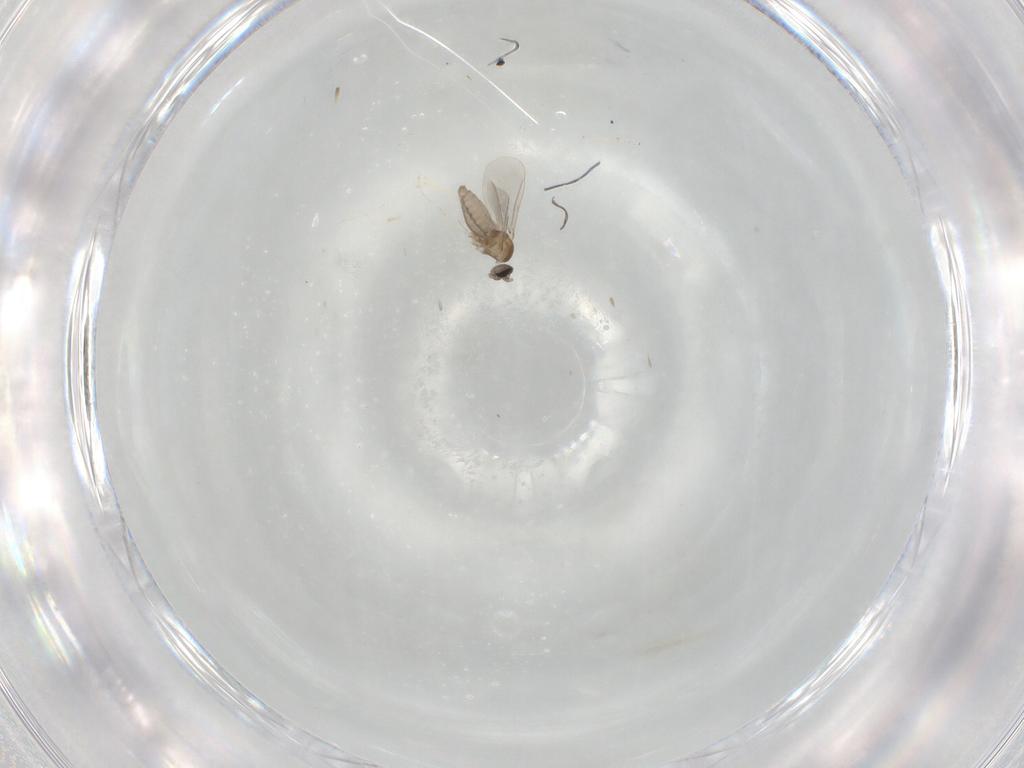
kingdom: Animalia
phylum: Arthropoda
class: Insecta
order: Diptera
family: Cecidomyiidae
